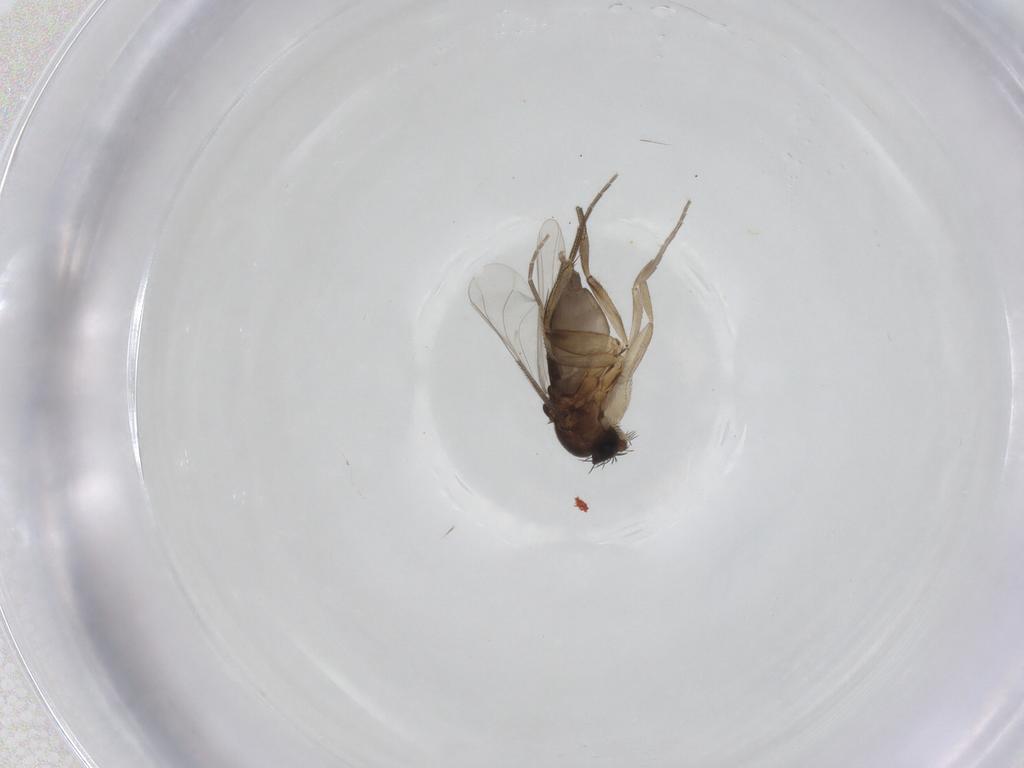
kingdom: Animalia
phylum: Arthropoda
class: Insecta
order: Diptera
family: Phoridae
